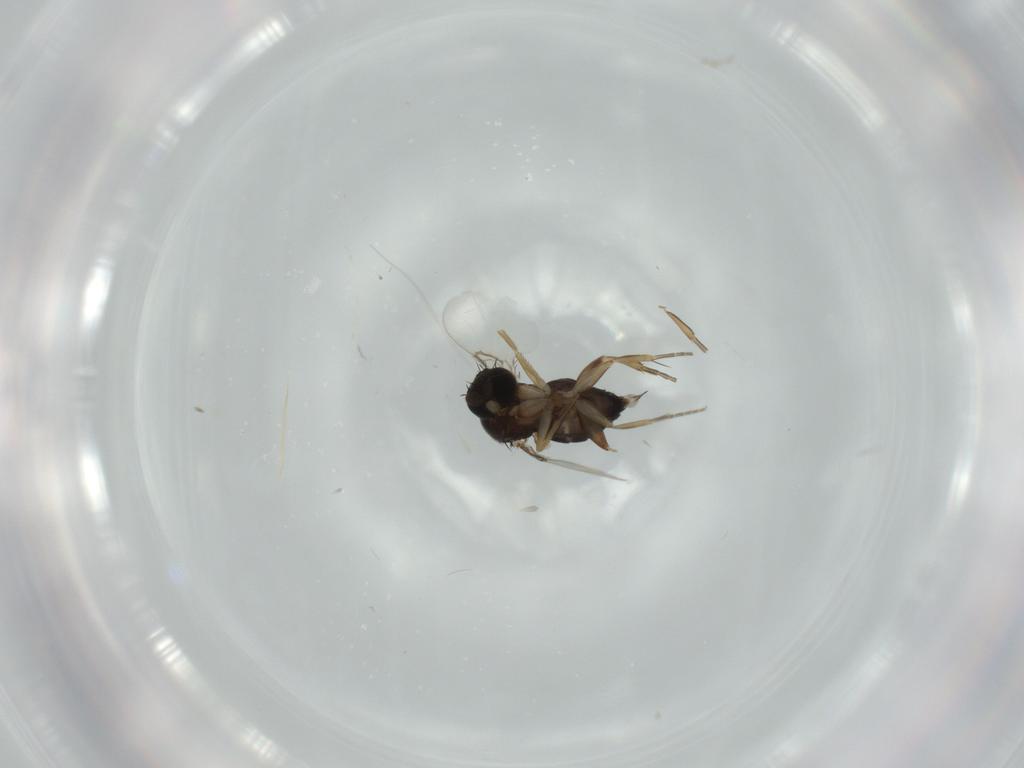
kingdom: Animalia
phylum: Arthropoda
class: Insecta
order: Diptera
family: Phoridae
